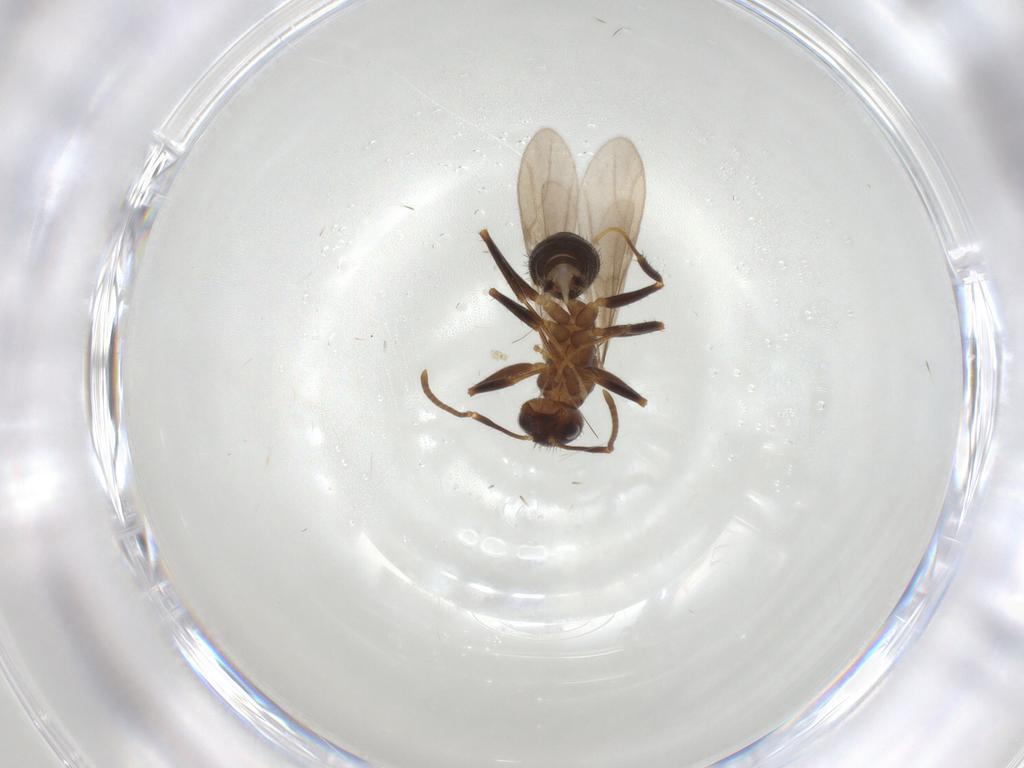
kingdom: Animalia
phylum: Arthropoda
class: Insecta
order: Hymenoptera
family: Formicidae
